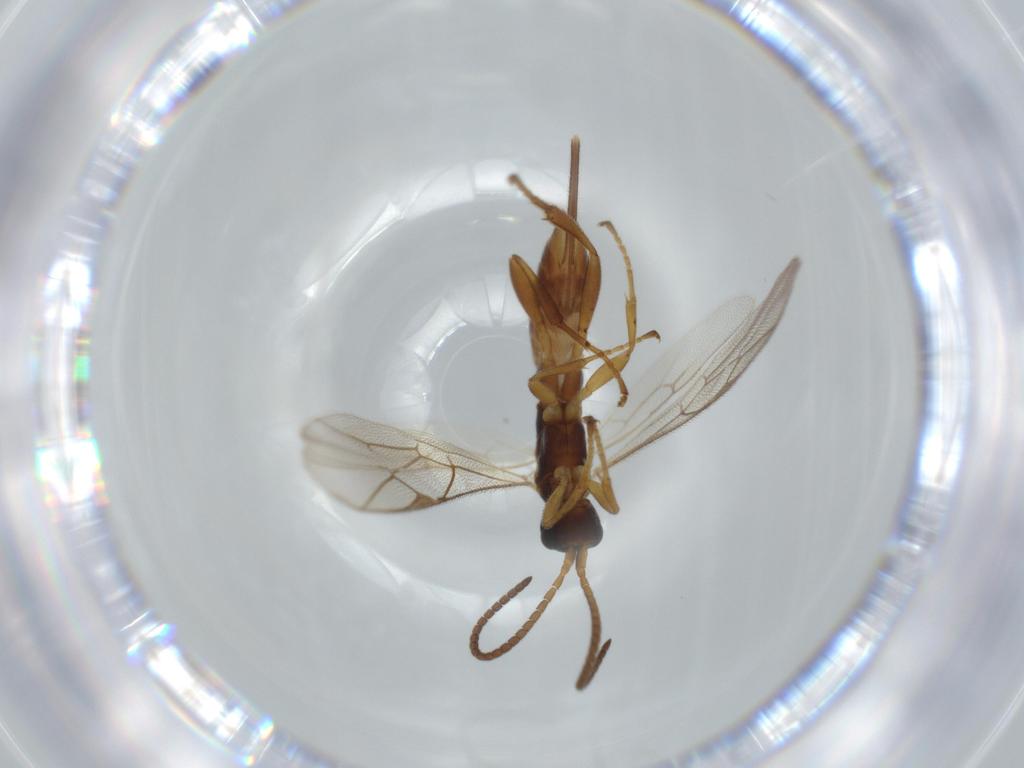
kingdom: Animalia
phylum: Arthropoda
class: Insecta
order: Hymenoptera
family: Ichneumonidae
